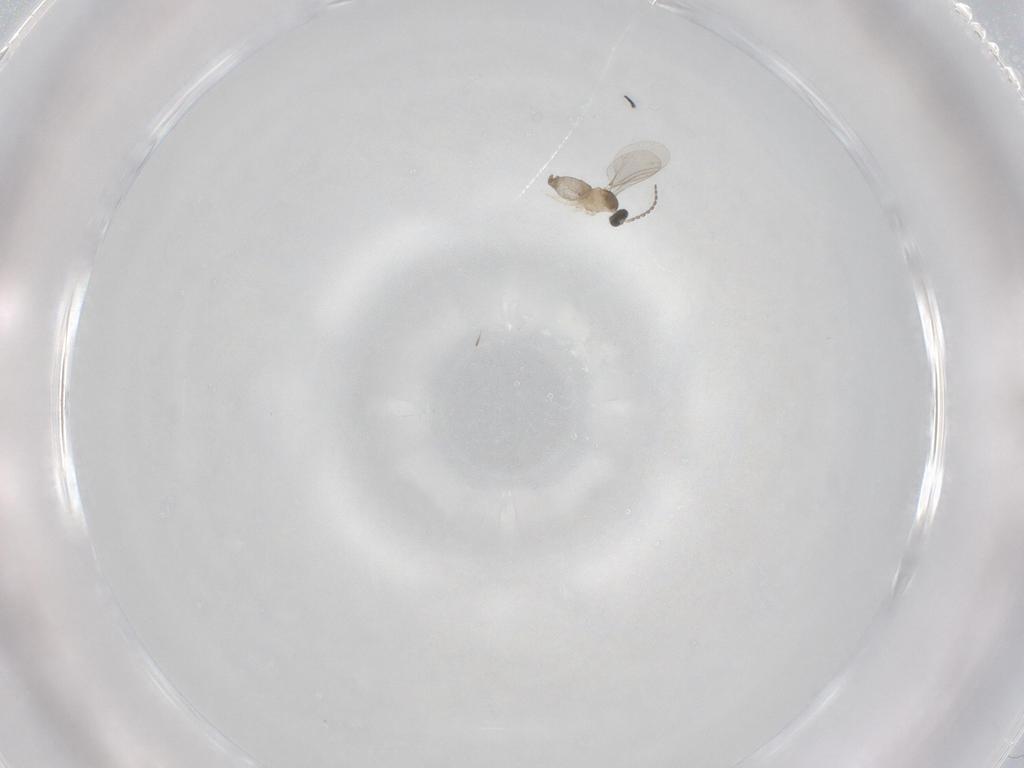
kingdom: Animalia
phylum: Arthropoda
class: Insecta
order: Diptera
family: Cecidomyiidae
